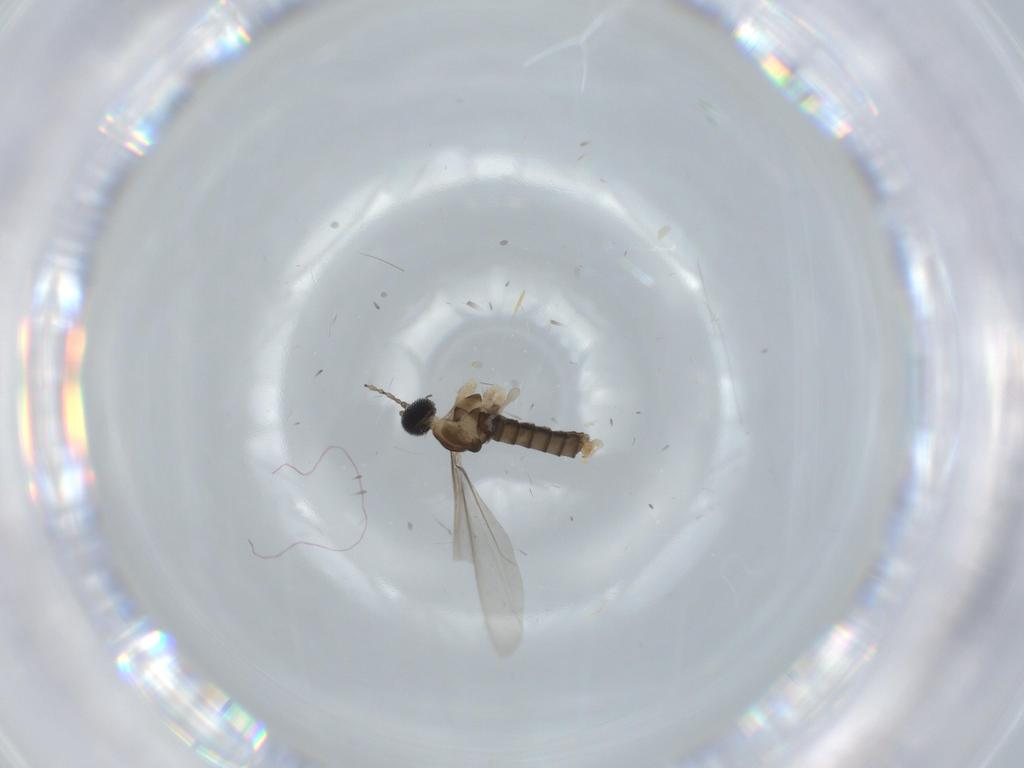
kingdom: Animalia
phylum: Arthropoda
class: Insecta
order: Diptera
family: Cecidomyiidae
